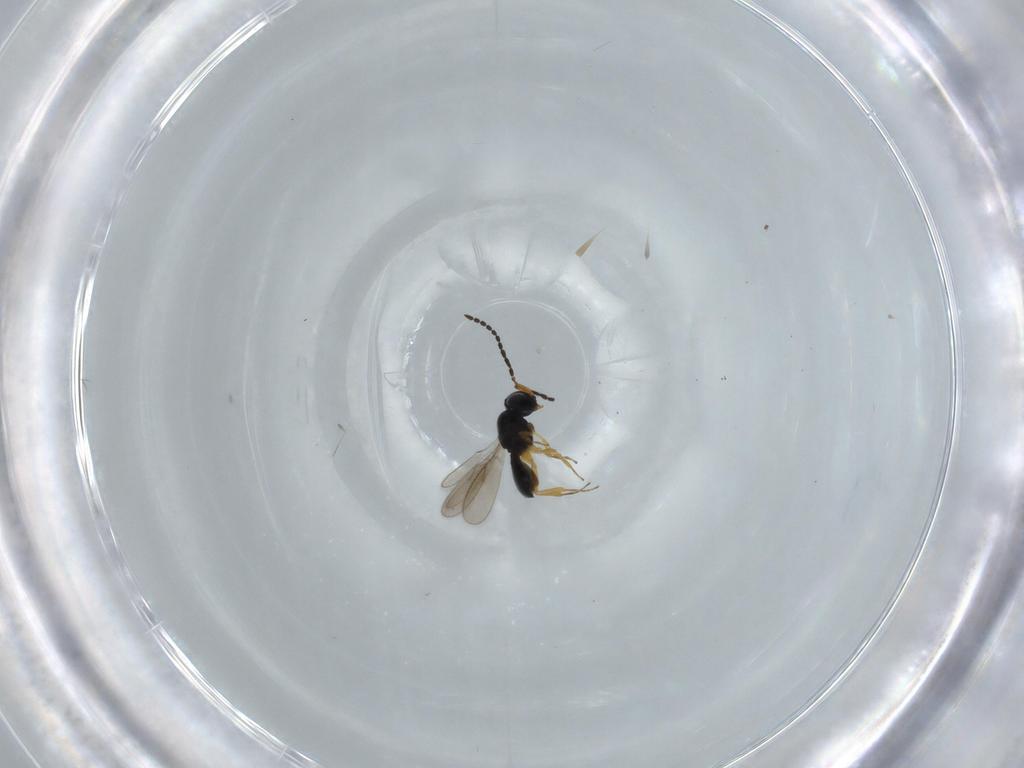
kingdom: Animalia
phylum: Arthropoda
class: Insecta
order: Hymenoptera
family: Scelionidae
